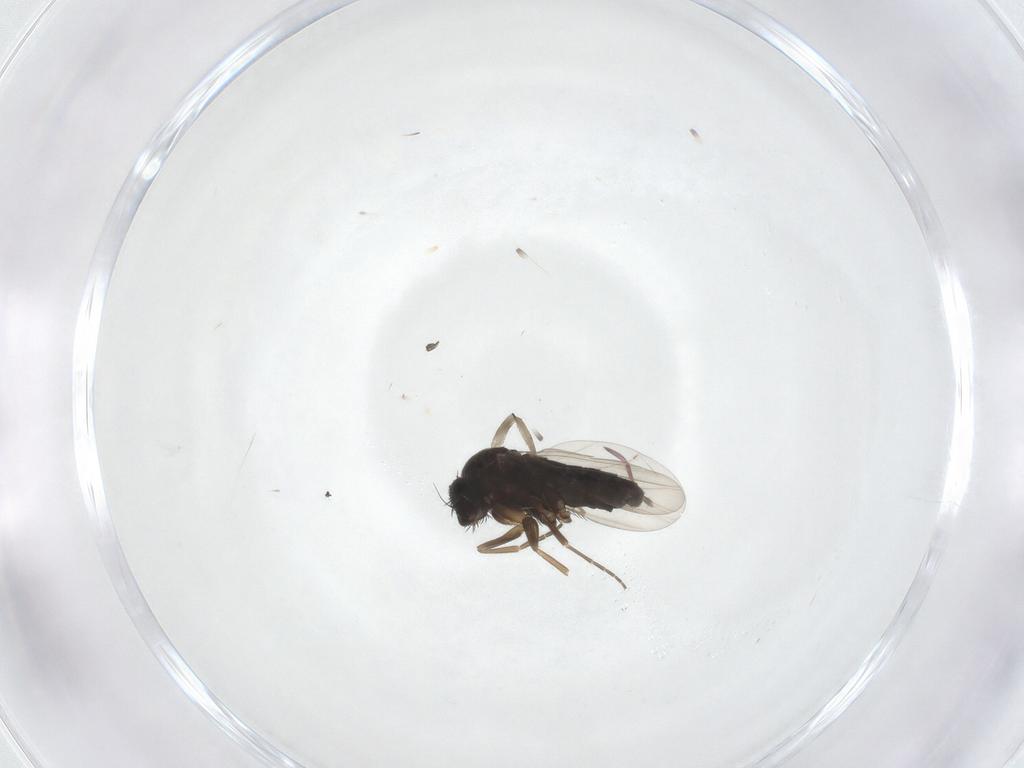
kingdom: Animalia
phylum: Arthropoda
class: Insecta
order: Diptera
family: Phoridae
